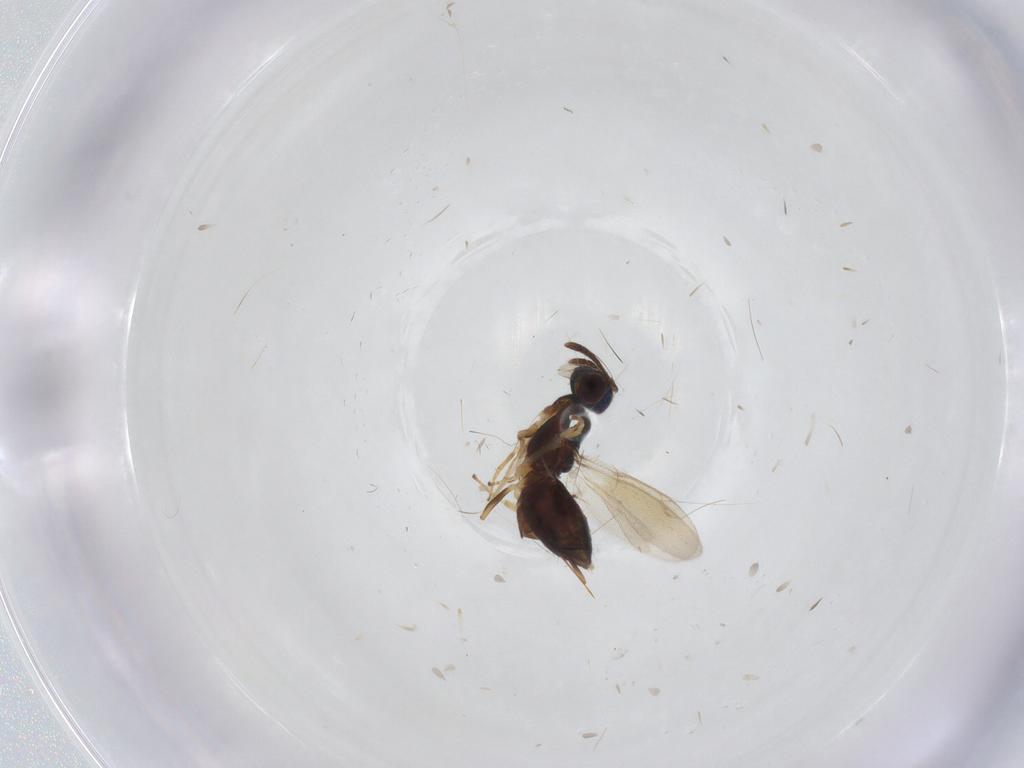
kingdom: Animalia
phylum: Arthropoda
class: Insecta
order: Hymenoptera
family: Eupelmidae
